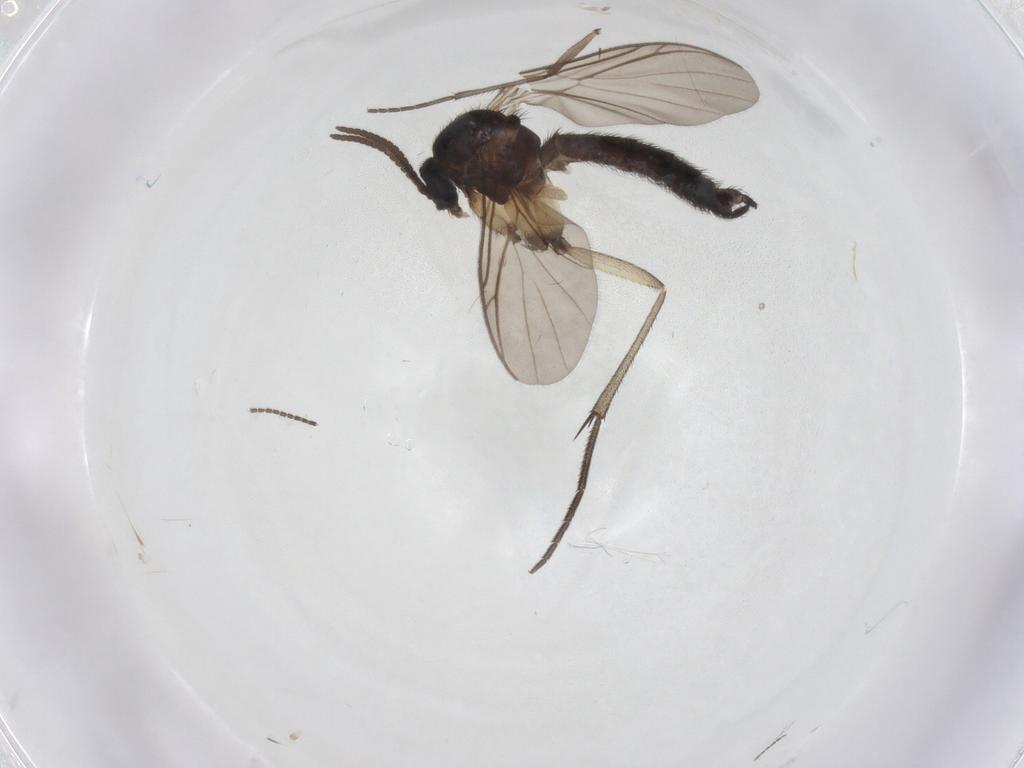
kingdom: Animalia
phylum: Arthropoda
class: Insecta
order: Diptera
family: Keroplatidae
